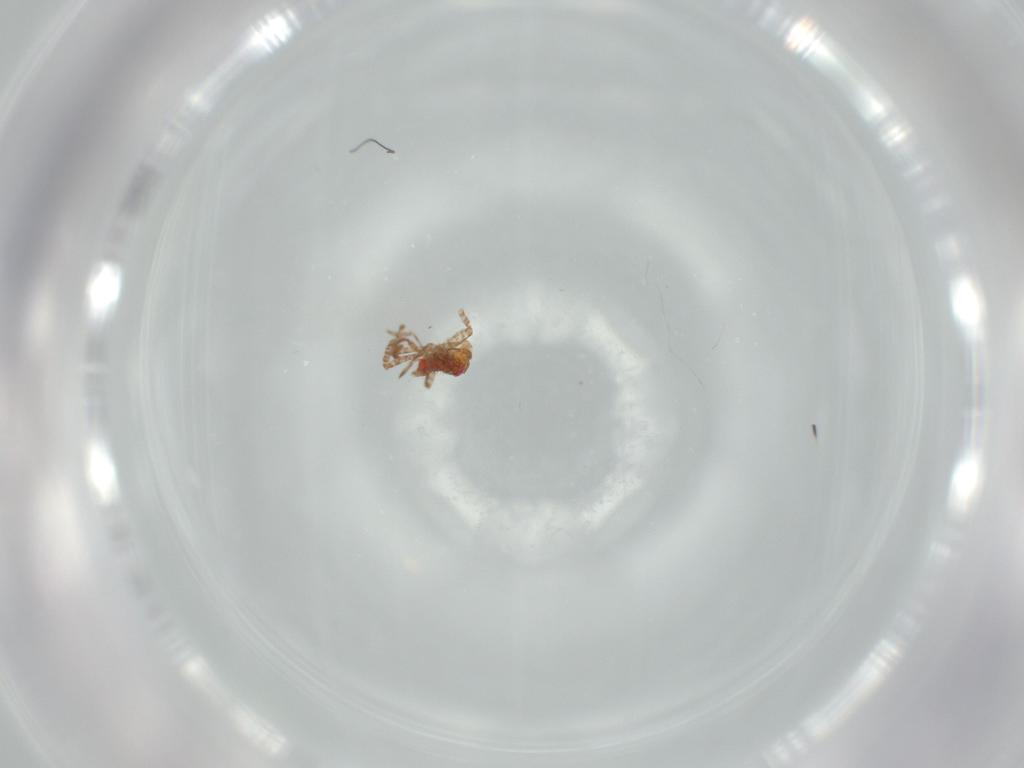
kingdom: Animalia
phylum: Arthropoda
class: Insecta
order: Hemiptera
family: Miridae
